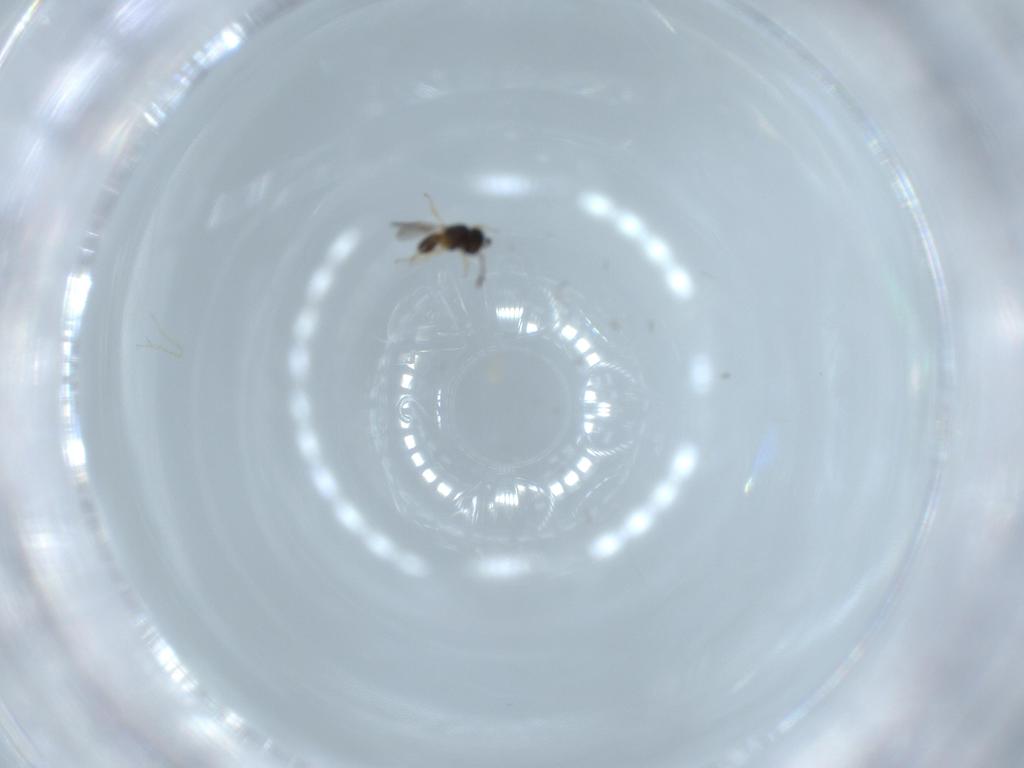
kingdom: Animalia
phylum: Arthropoda
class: Insecta
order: Hymenoptera
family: Scelionidae
